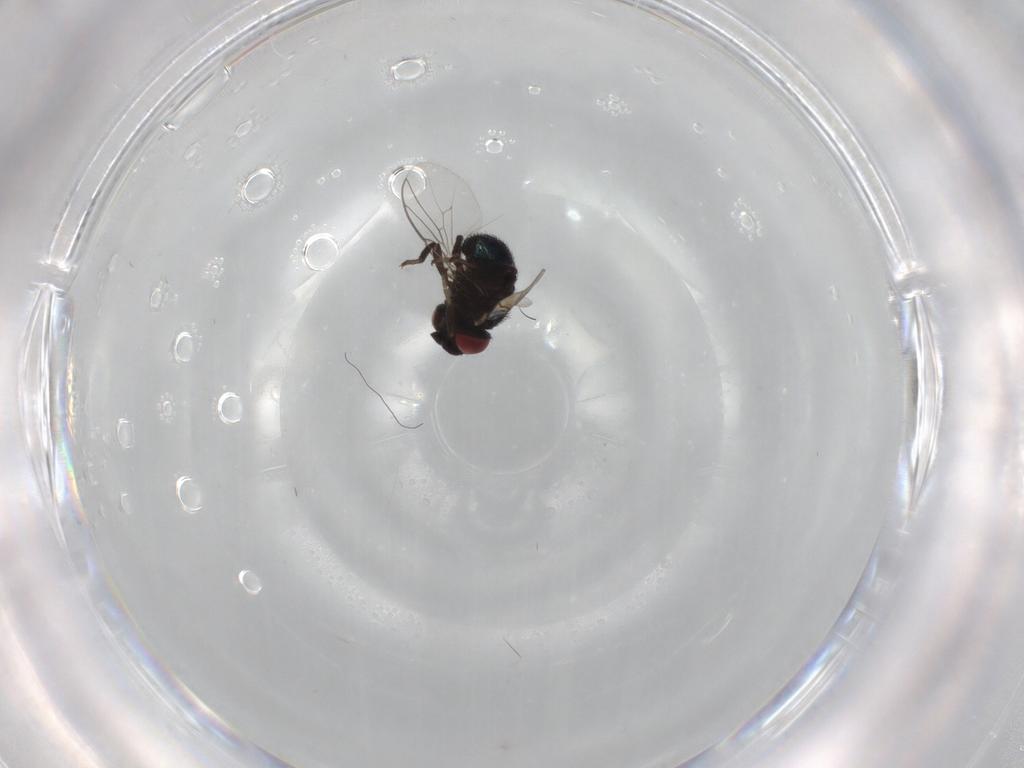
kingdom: Animalia
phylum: Arthropoda
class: Insecta
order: Diptera
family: Cryptochetidae
